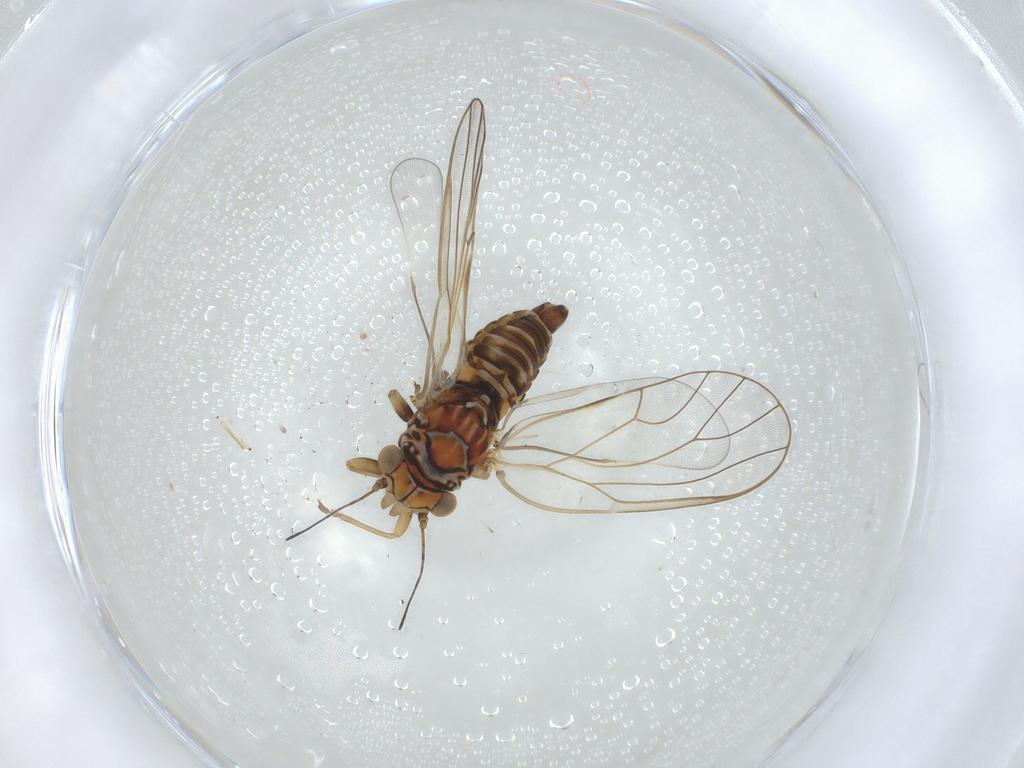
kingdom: Animalia
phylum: Arthropoda
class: Insecta
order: Hemiptera
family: Psyllidae
